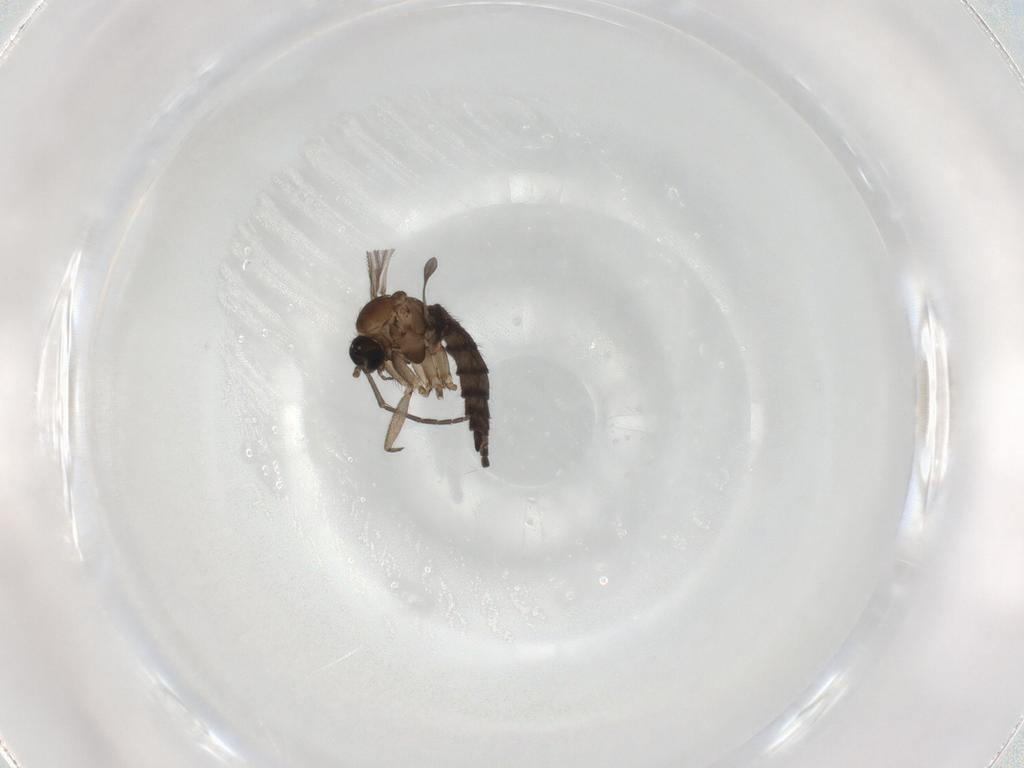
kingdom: Animalia
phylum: Arthropoda
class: Insecta
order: Diptera
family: Sciaridae
